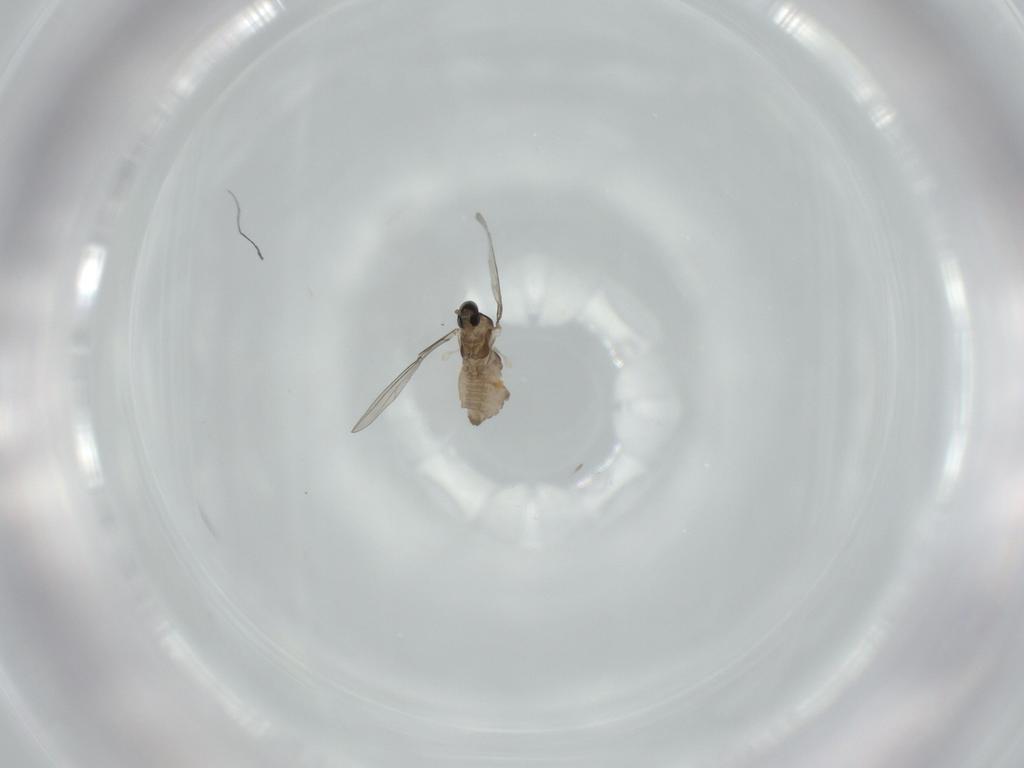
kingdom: Animalia
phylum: Arthropoda
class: Insecta
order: Diptera
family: Phoridae
